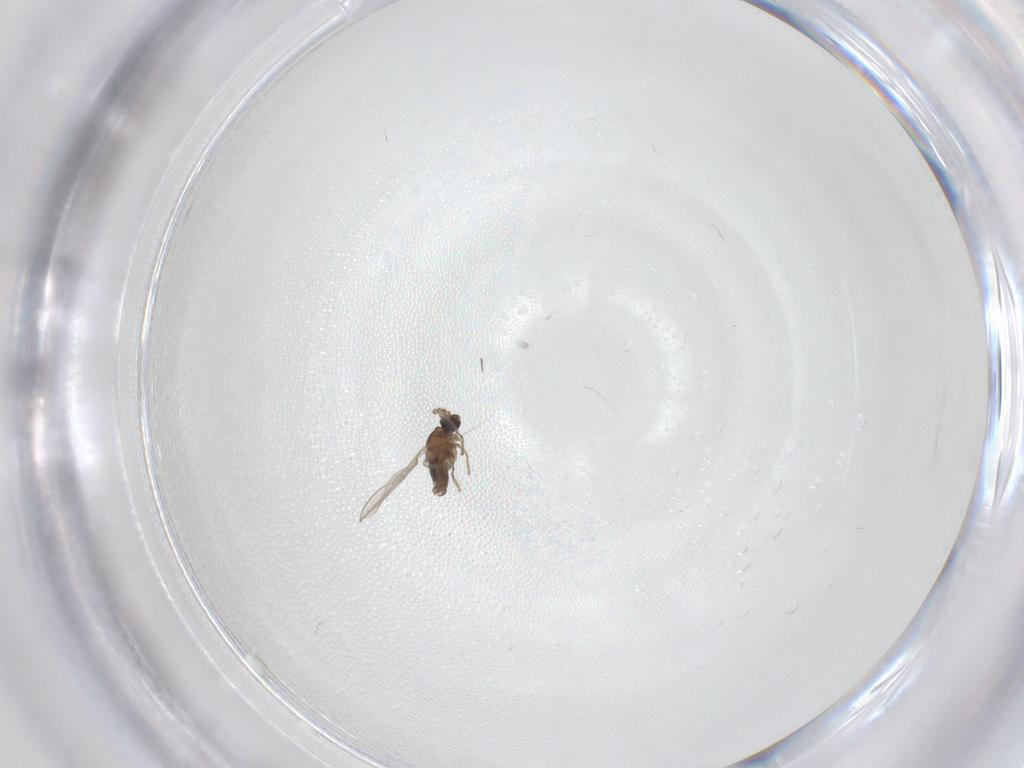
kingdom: Animalia
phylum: Arthropoda
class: Insecta
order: Diptera
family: Cecidomyiidae
